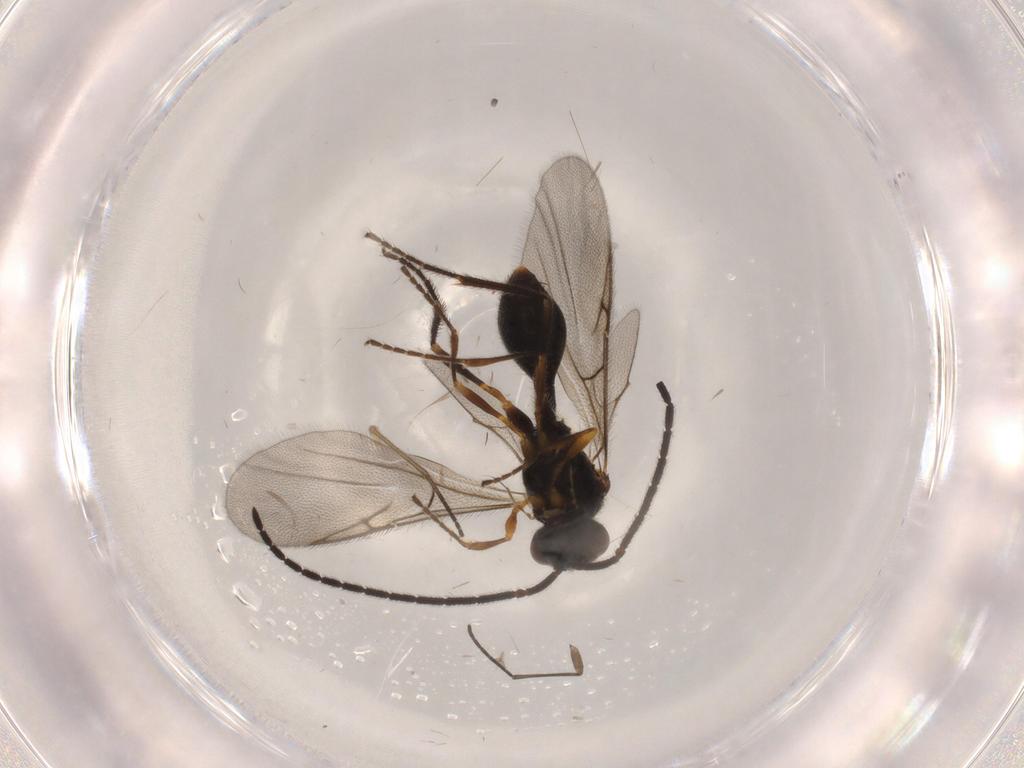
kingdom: Animalia
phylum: Arthropoda
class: Insecta
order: Hymenoptera
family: Diapriidae
